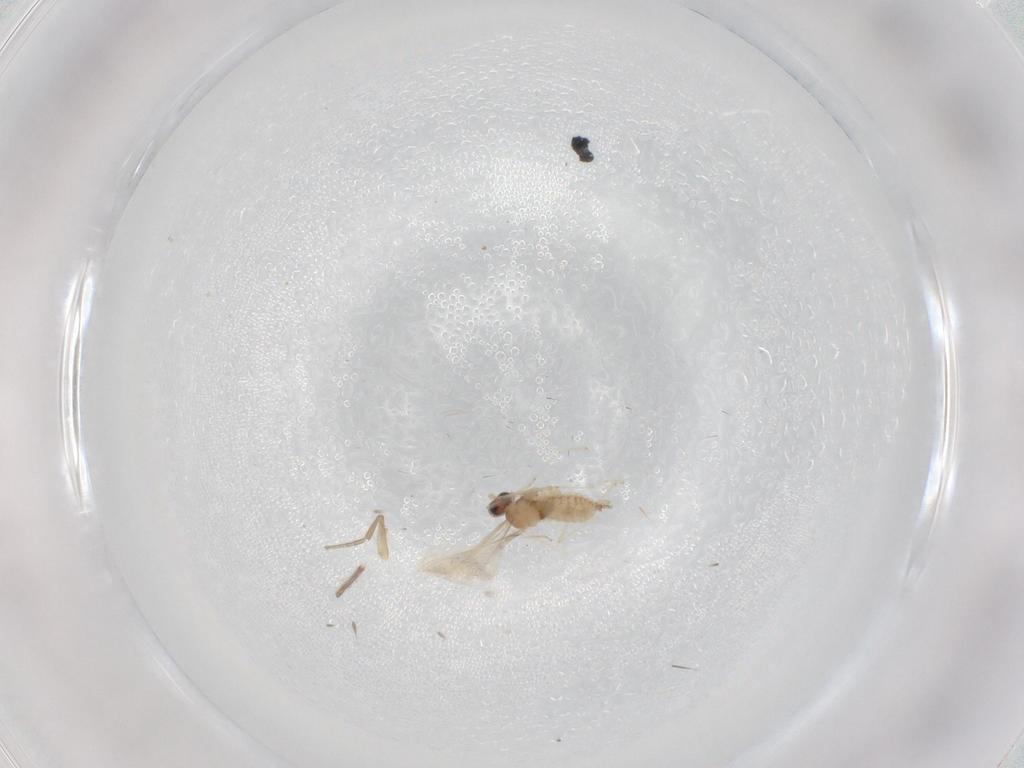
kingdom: Animalia
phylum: Arthropoda
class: Insecta
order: Diptera
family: Phoridae
